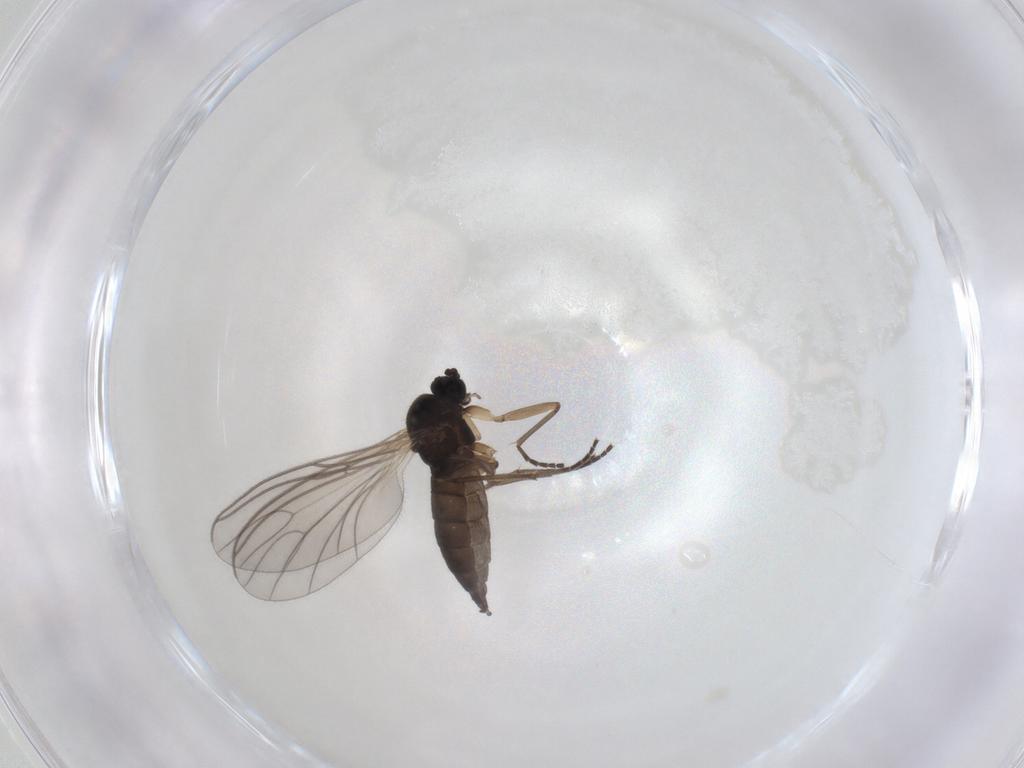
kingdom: Animalia
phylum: Arthropoda
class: Insecta
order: Diptera
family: Sciaridae
